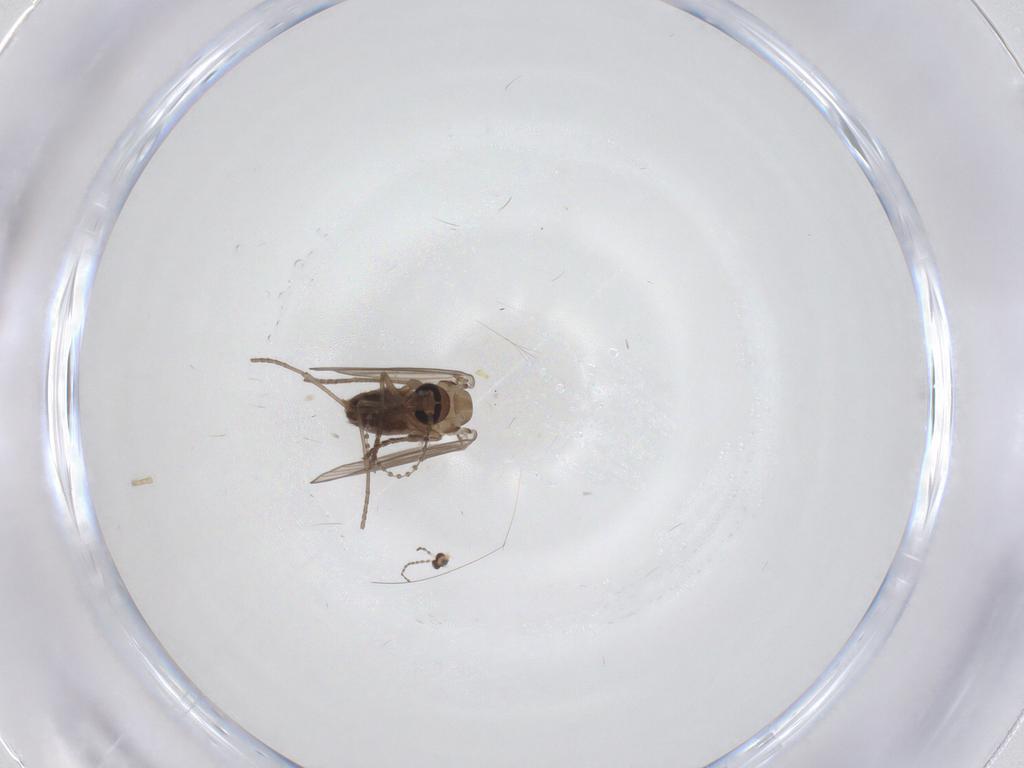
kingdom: Animalia
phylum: Arthropoda
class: Insecta
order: Diptera
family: Psychodidae
